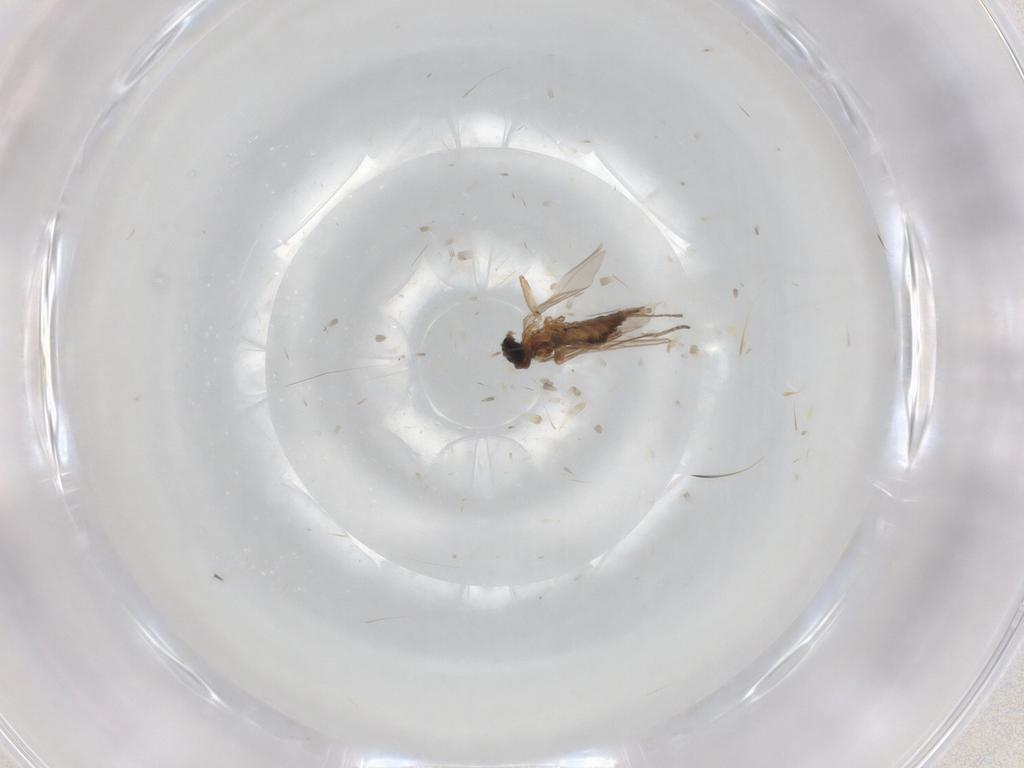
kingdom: Animalia
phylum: Arthropoda
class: Insecta
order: Diptera
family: Sciaridae
